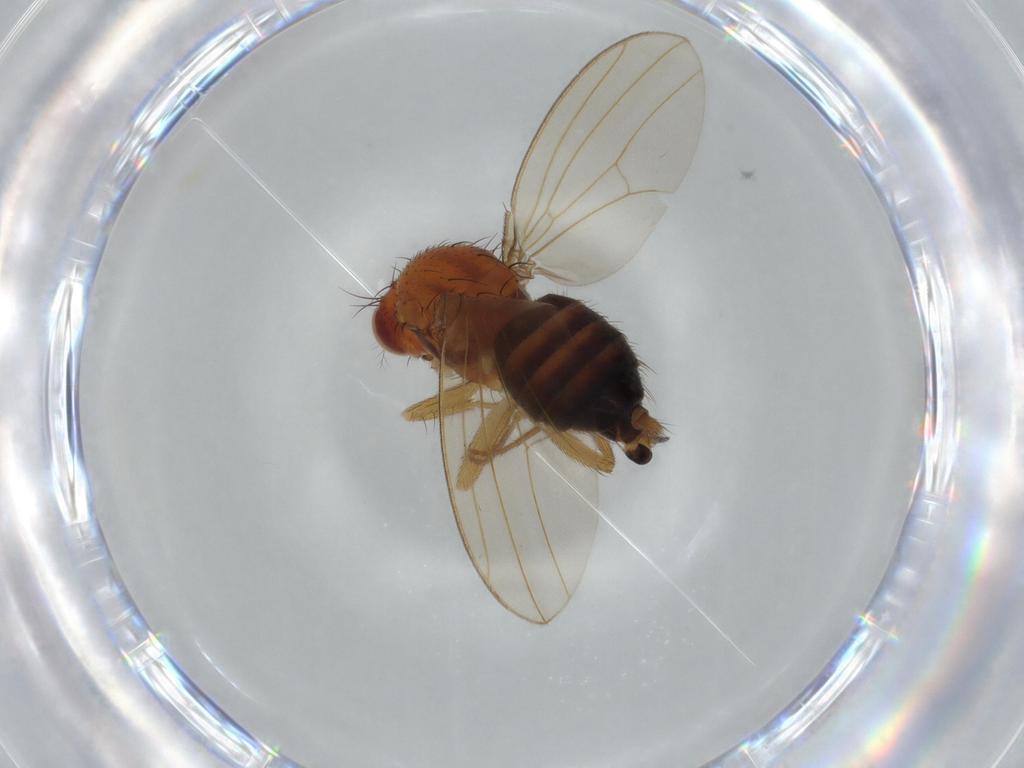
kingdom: Animalia
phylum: Arthropoda
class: Insecta
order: Diptera
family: Drosophilidae
